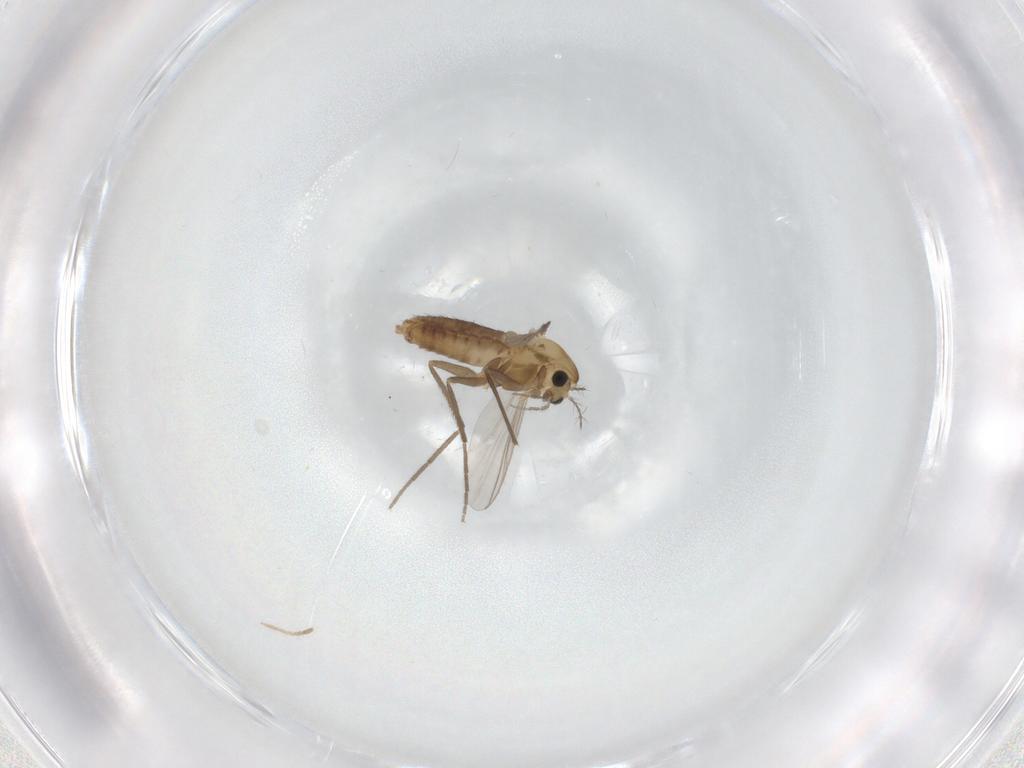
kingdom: Animalia
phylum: Arthropoda
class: Insecta
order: Diptera
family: Chironomidae
